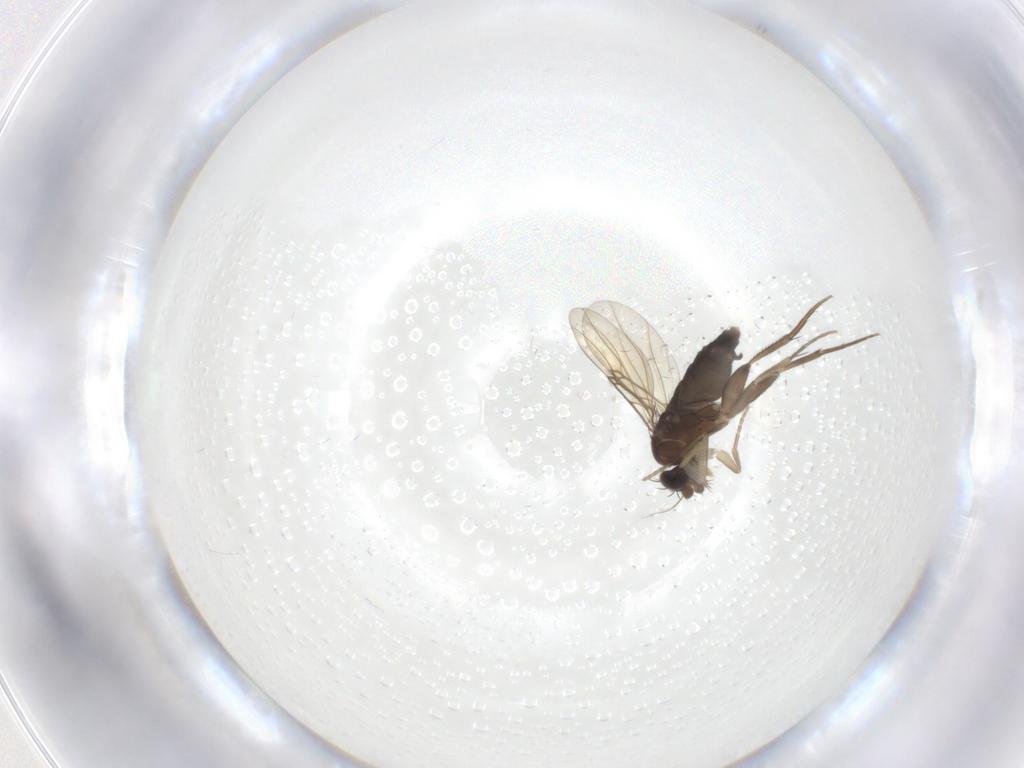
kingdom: Animalia
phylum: Arthropoda
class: Insecta
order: Diptera
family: Phoridae
